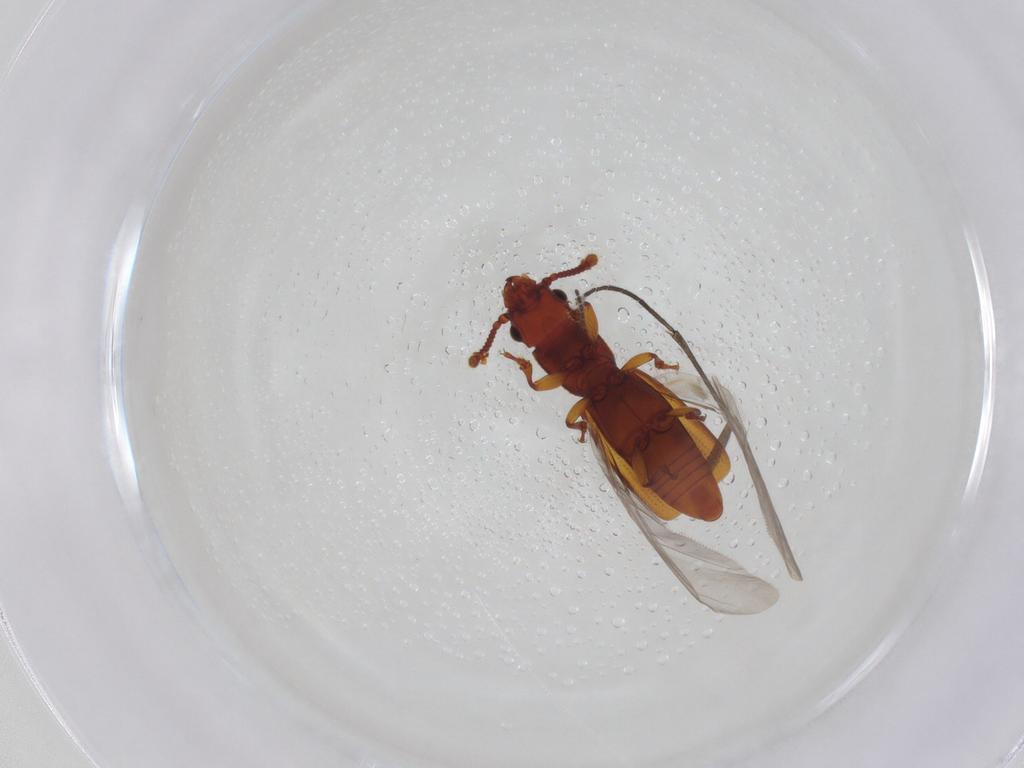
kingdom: Animalia
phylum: Arthropoda
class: Insecta
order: Coleoptera
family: Monotomidae
